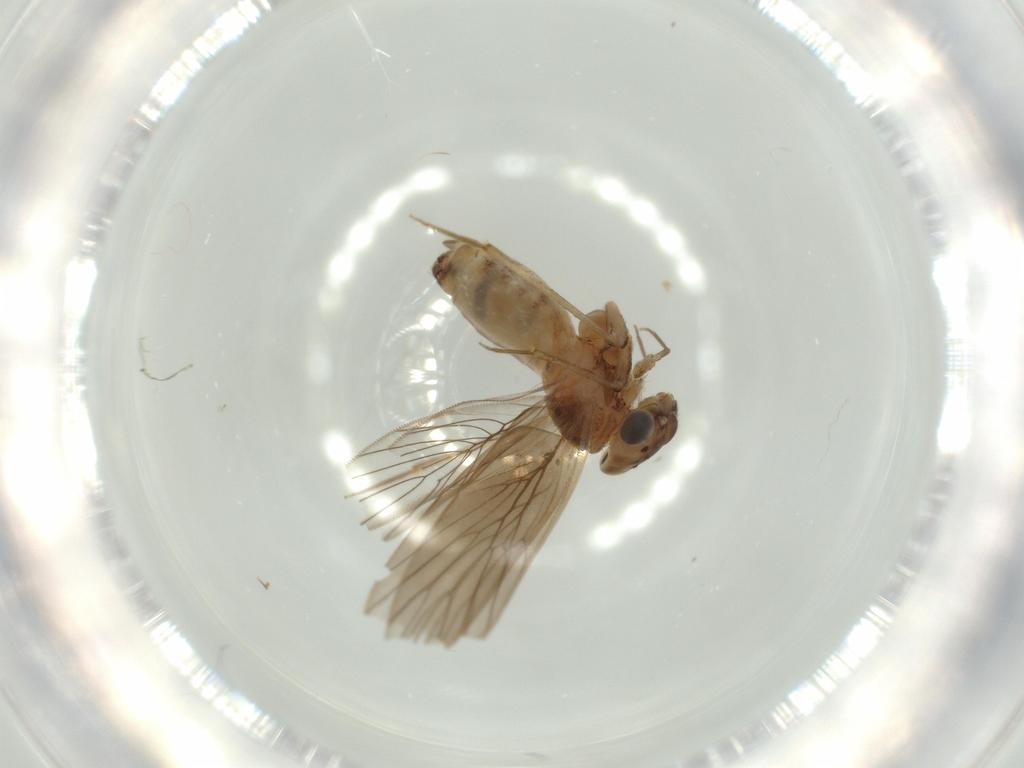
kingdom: Animalia
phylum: Arthropoda
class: Insecta
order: Psocodea
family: Lepidopsocidae
